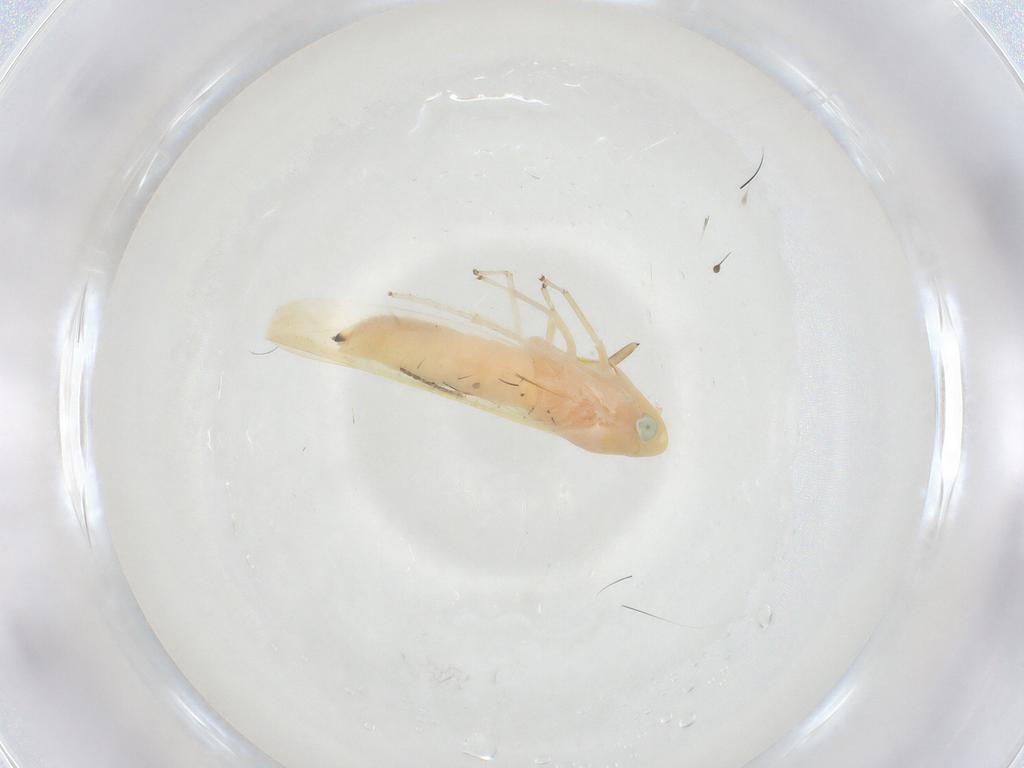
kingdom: Animalia
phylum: Arthropoda
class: Insecta
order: Hemiptera
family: Cicadellidae
